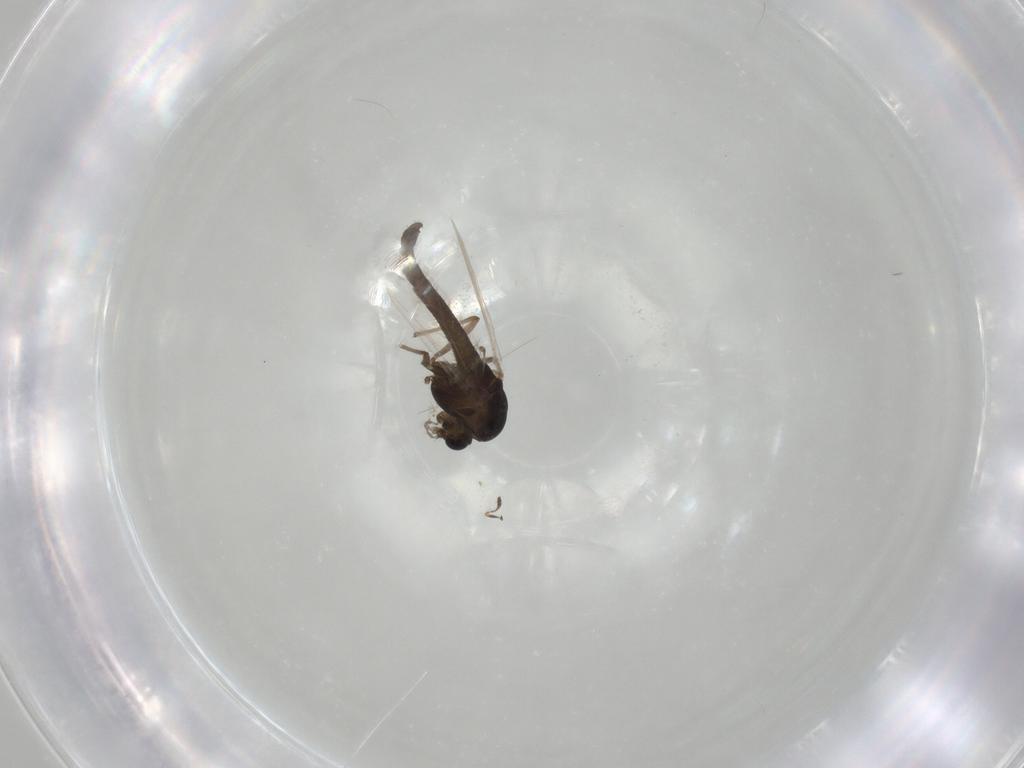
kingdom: Animalia
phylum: Arthropoda
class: Insecta
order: Diptera
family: Chironomidae
